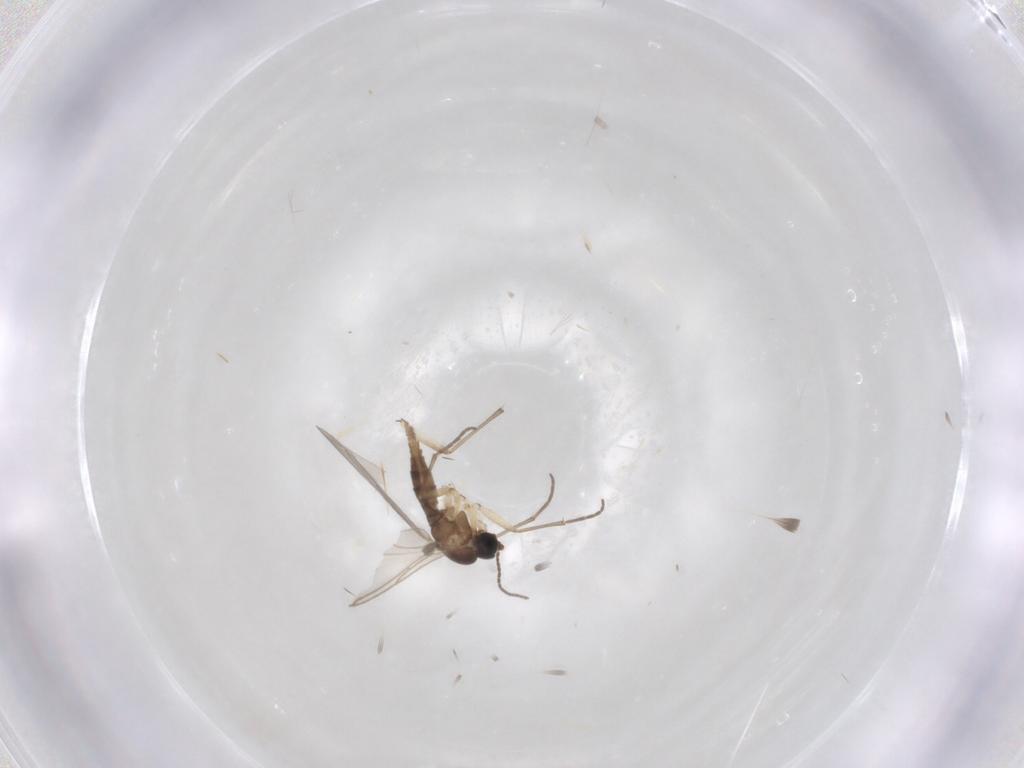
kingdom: Animalia
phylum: Arthropoda
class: Insecta
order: Diptera
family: Sciaridae
